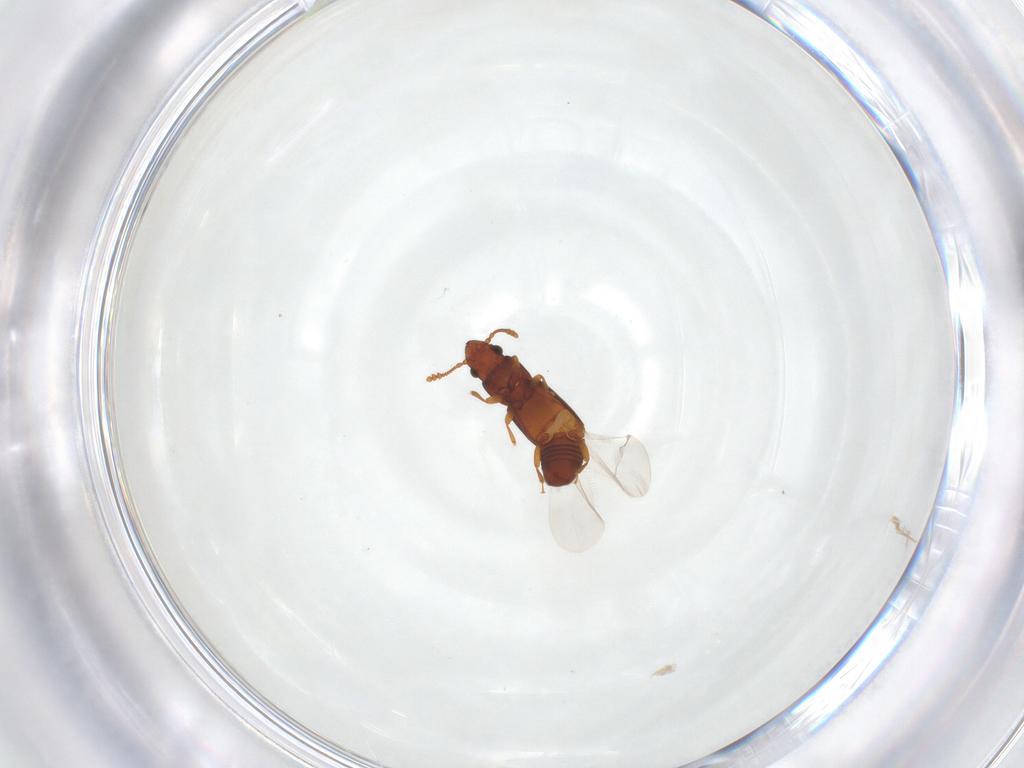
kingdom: Animalia
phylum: Arthropoda
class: Insecta
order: Coleoptera
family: Smicripidae
